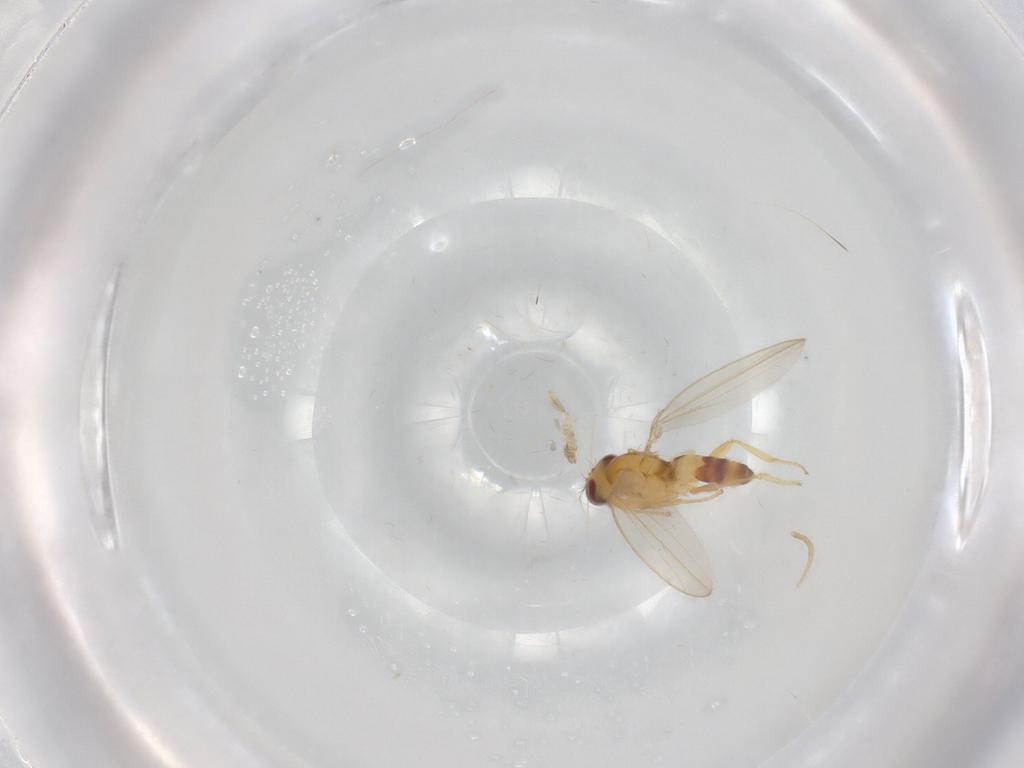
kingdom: Animalia
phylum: Arthropoda
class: Insecta
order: Diptera
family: Periscelididae
